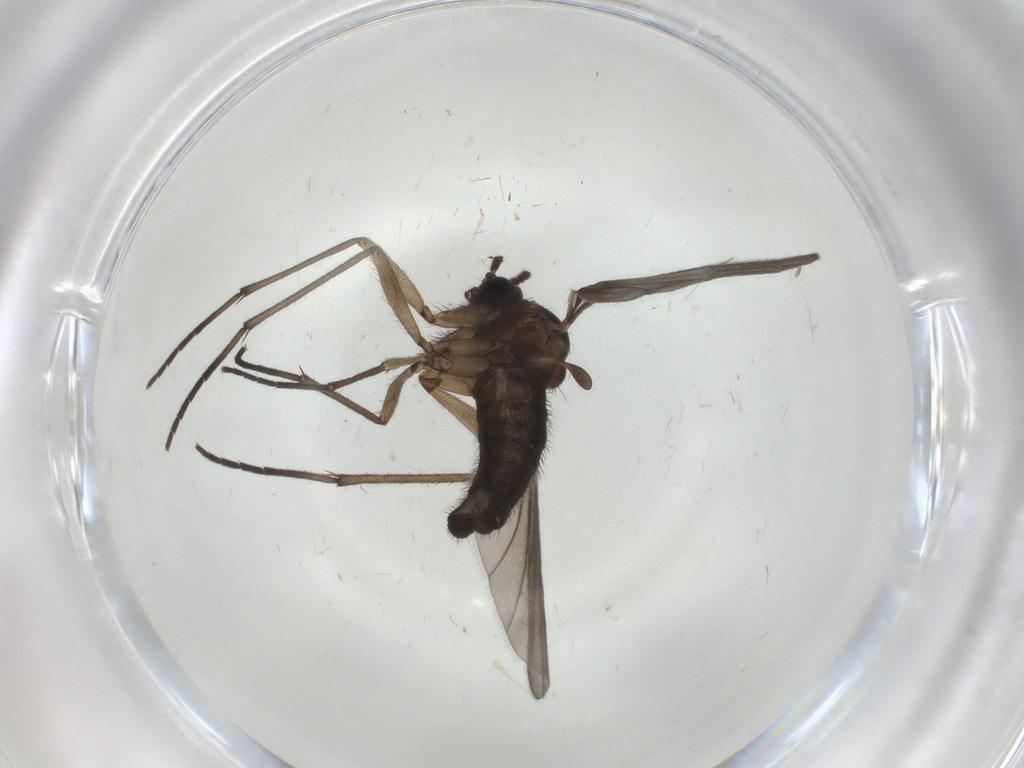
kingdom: Animalia
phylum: Arthropoda
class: Insecta
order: Diptera
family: Sciaridae
